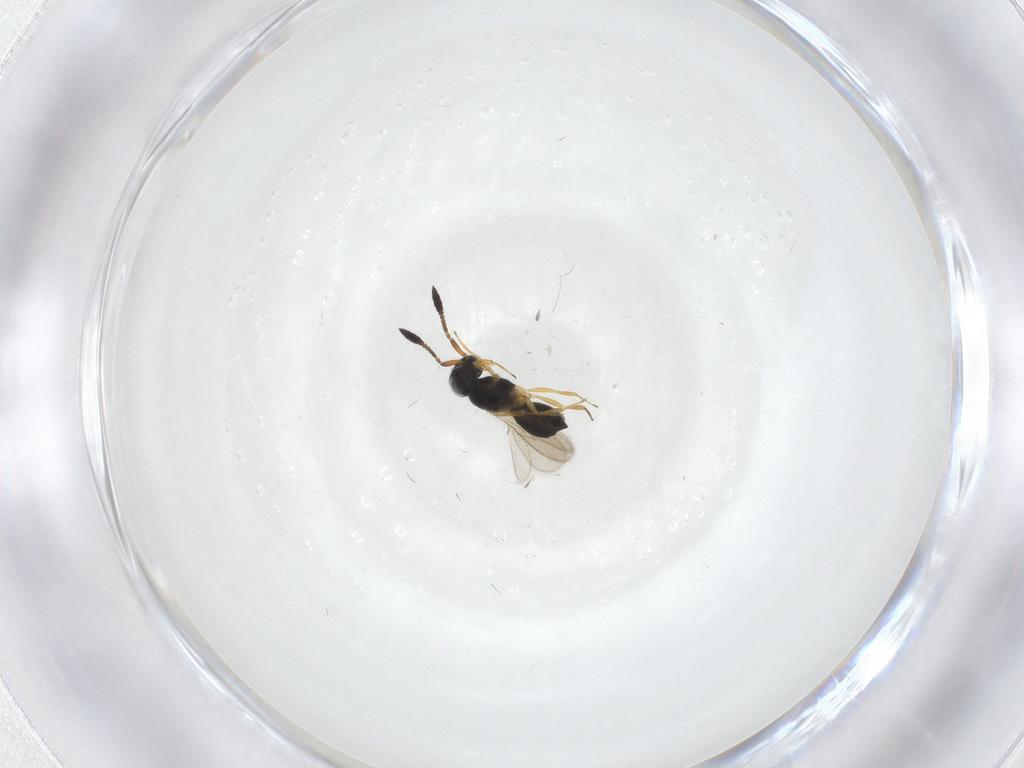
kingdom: Animalia
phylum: Arthropoda
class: Insecta
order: Hymenoptera
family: Scelionidae
